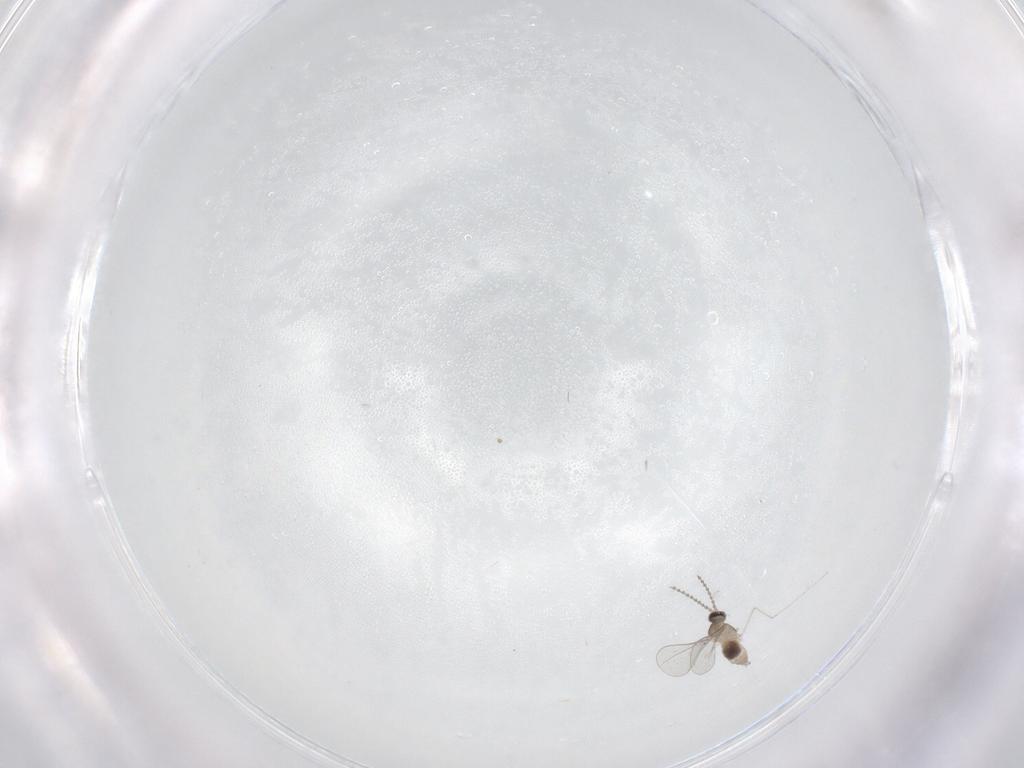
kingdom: Animalia
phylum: Arthropoda
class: Insecta
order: Diptera
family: Cecidomyiidae
